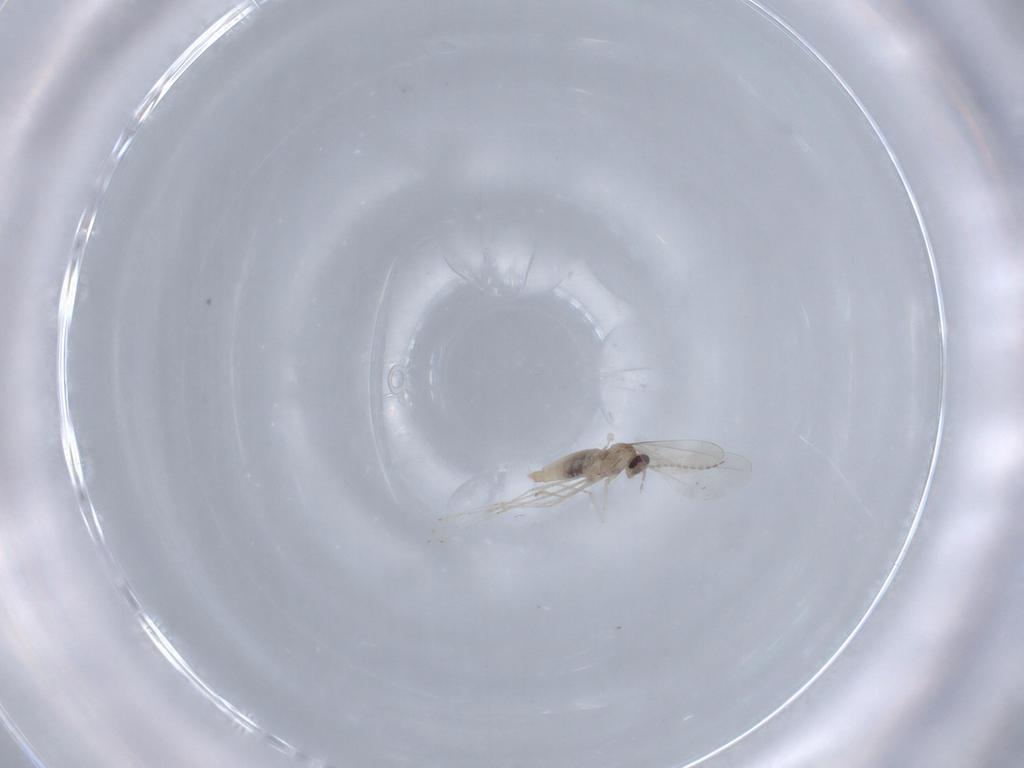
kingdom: Animalia
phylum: Arthropoda
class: Insecta
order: Diptera
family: Cecidomyiidae
